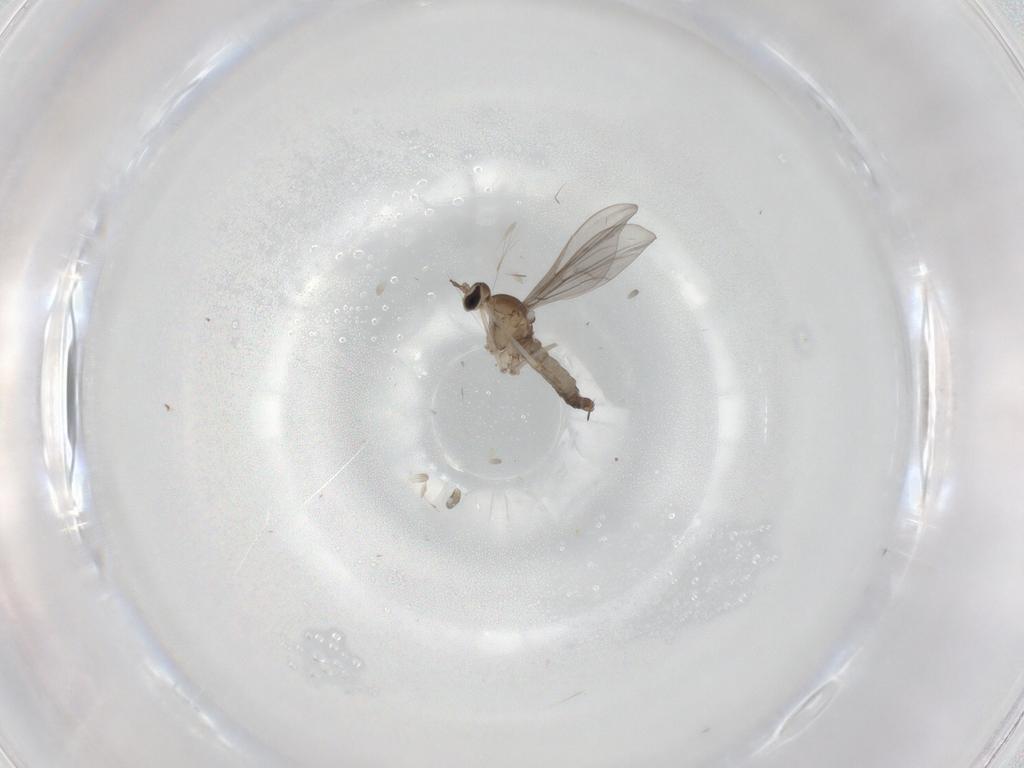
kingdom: Animalia
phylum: Arthropoda
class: Insecta
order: Diptera
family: Cecidomyiidae
